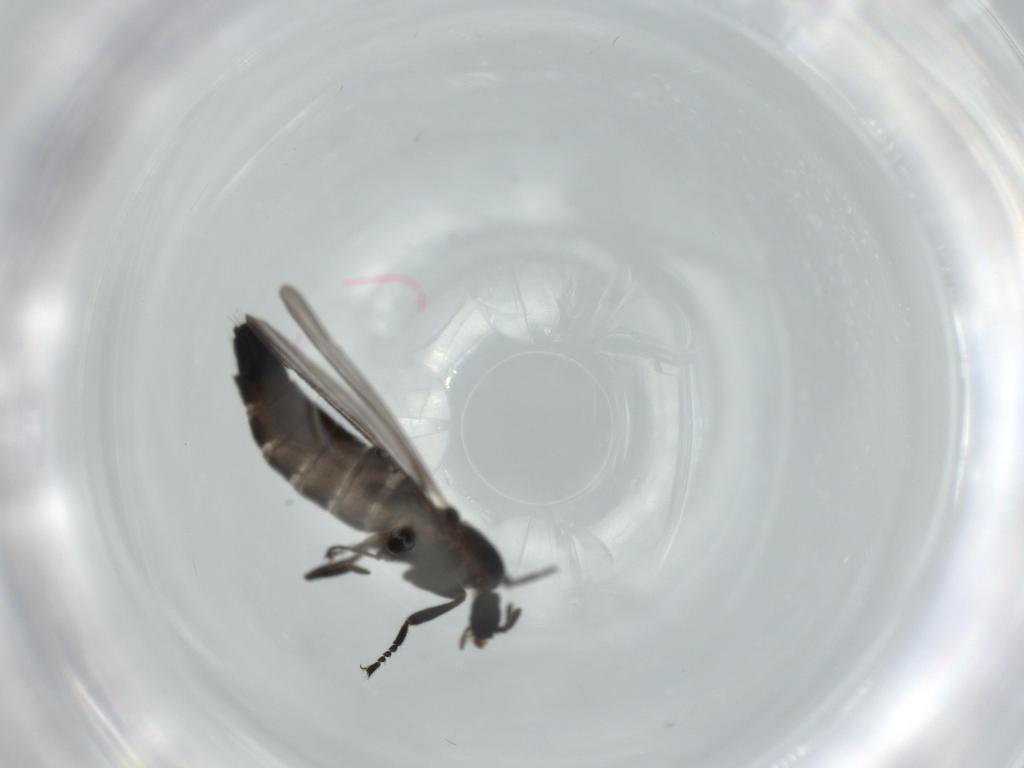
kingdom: Animalia
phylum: Arthropoda
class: Insecta
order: Diptera
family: Scatopsidae
